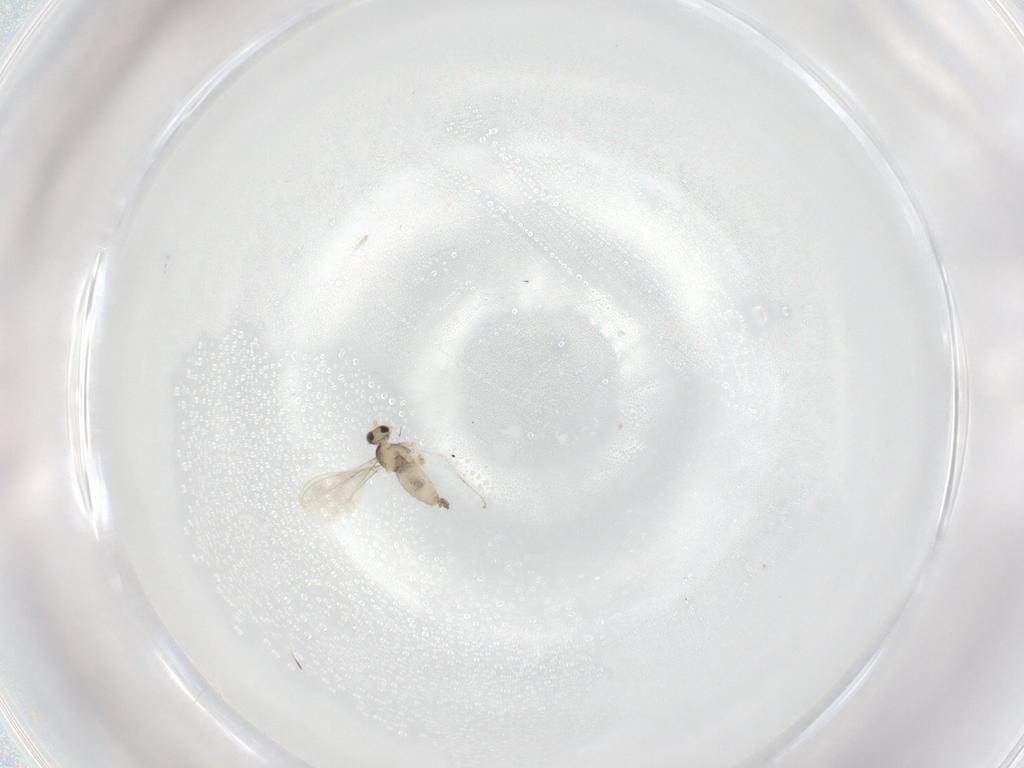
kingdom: Animalia
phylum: Arthropoda
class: Insecta
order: Diptera
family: Cecidomyiidae
